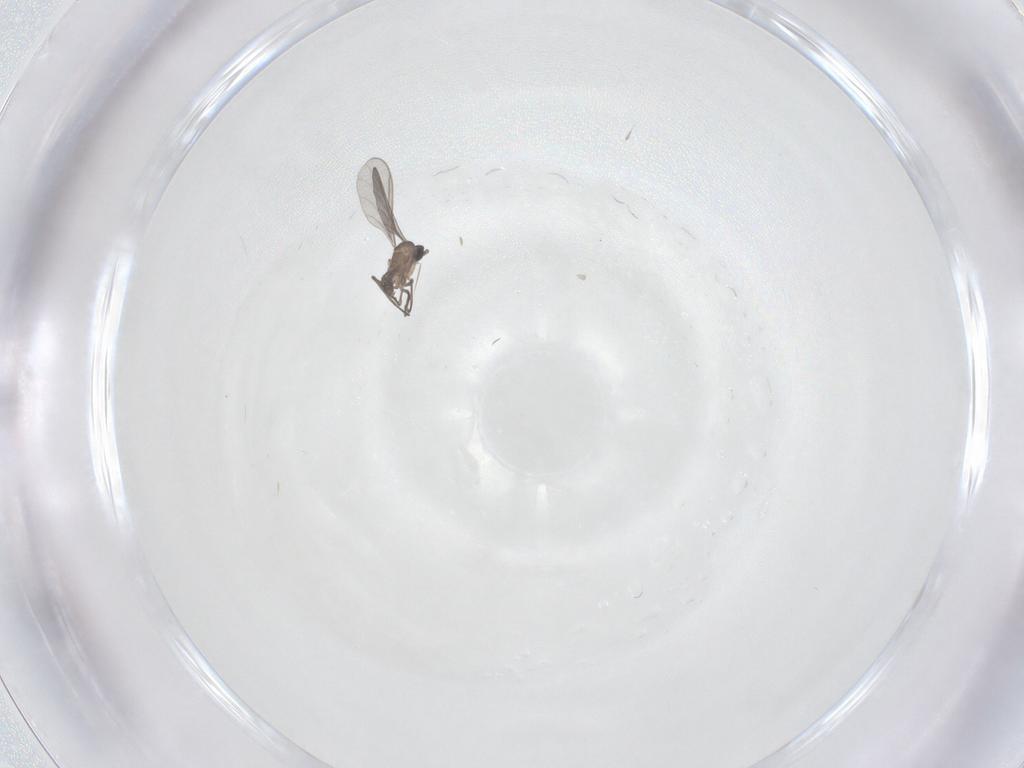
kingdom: Animalia
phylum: Arthropoda
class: Insecta
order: Diptera
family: Sciaridae
